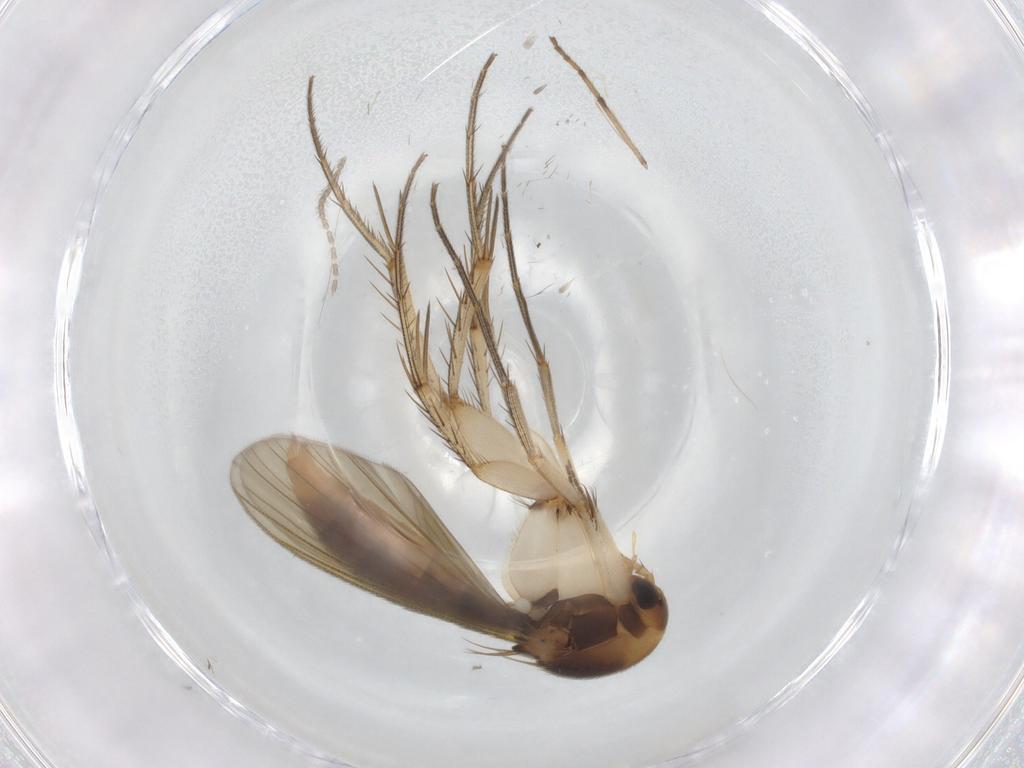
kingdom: Animalia
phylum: Arthropoda
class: Insecta
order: Diptera
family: Mycetophilidae
